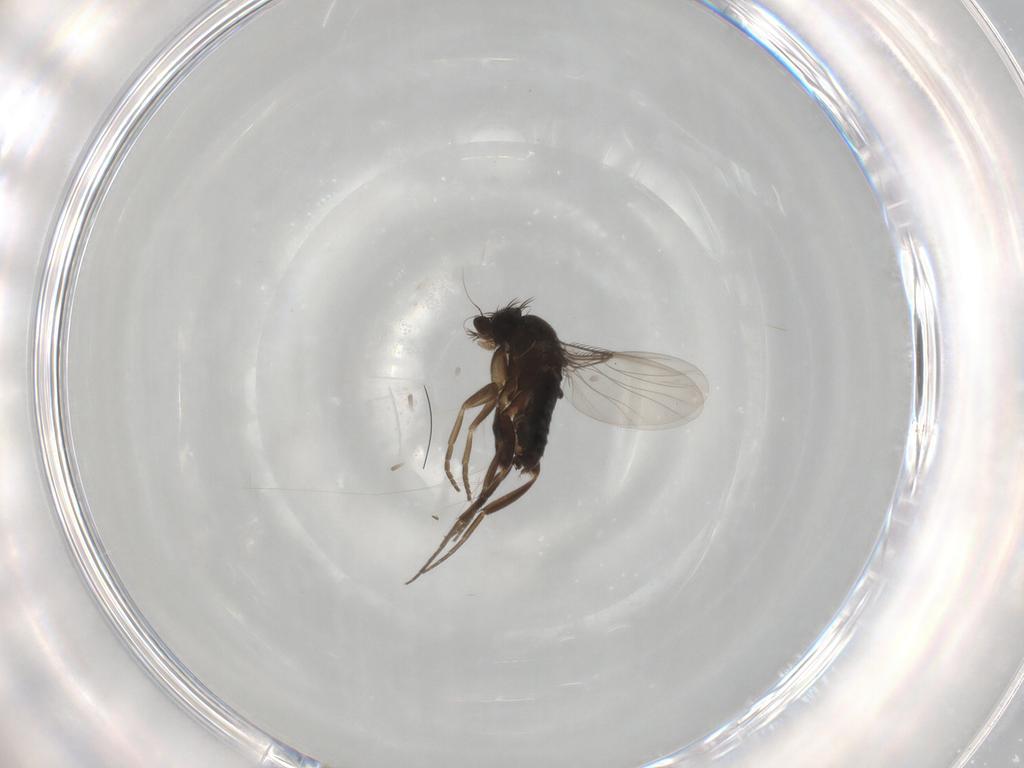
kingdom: Animalia
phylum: Arthropoda
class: Insecta
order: Diptera
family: Phoridae
